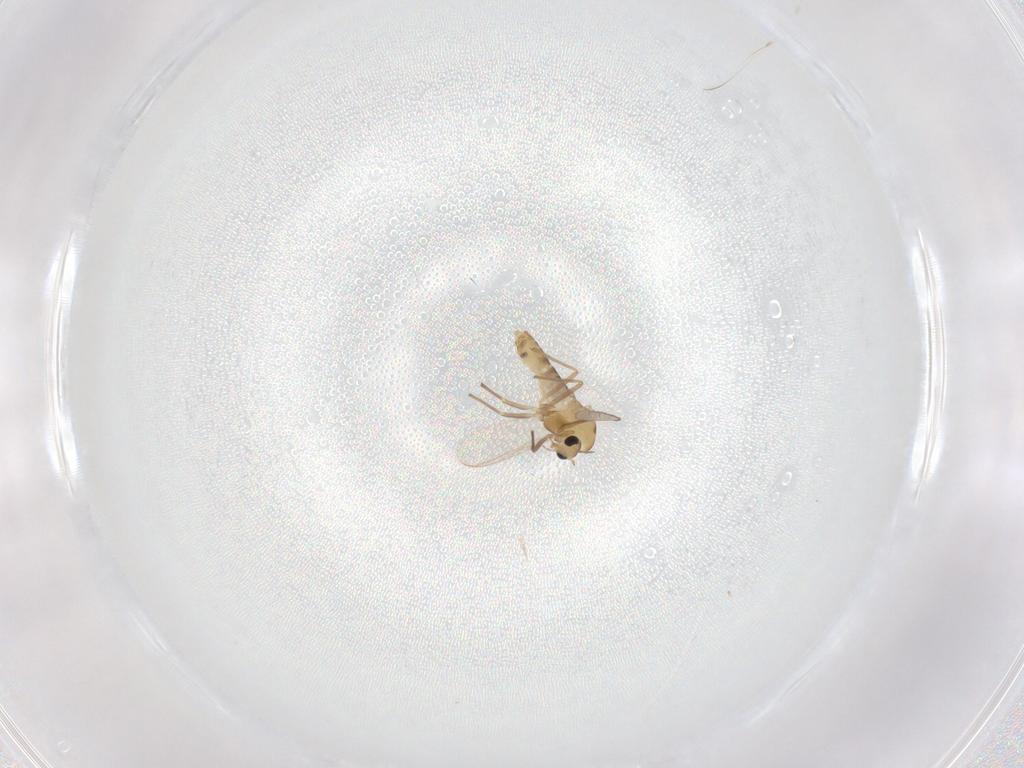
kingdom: Animalia
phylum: Arthropoda
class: Insecta
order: Diptera
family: Chironomidae
